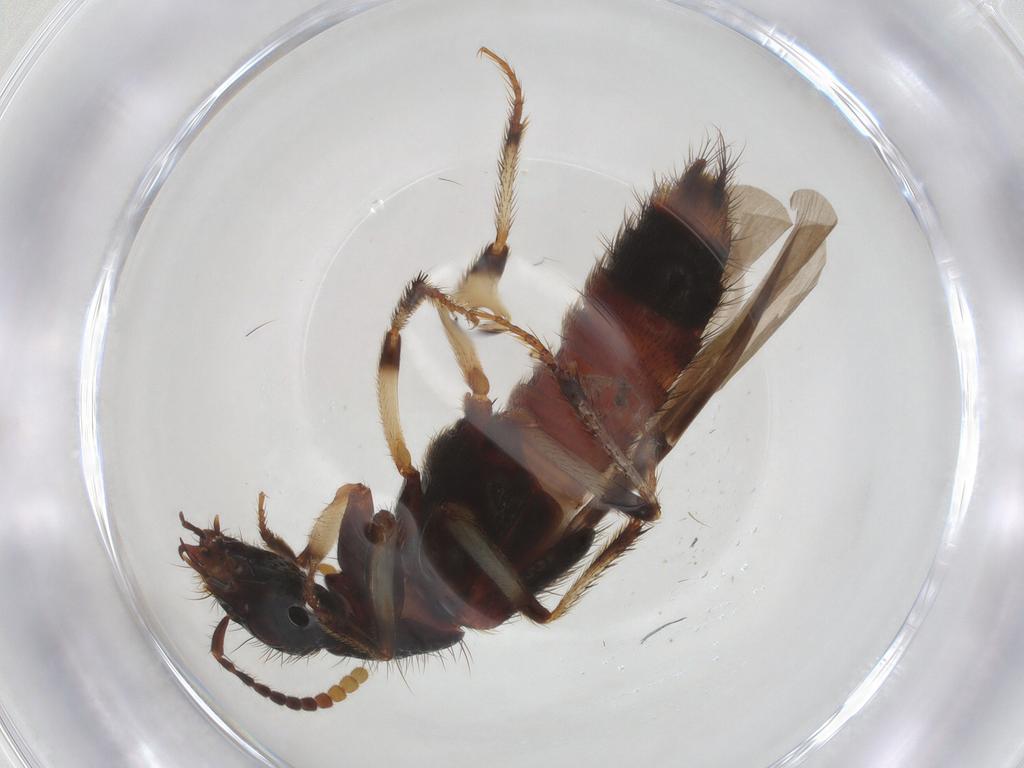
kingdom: Animalia
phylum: Arthropoda
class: Insecta
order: Coleoptera
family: Staphylinidae
